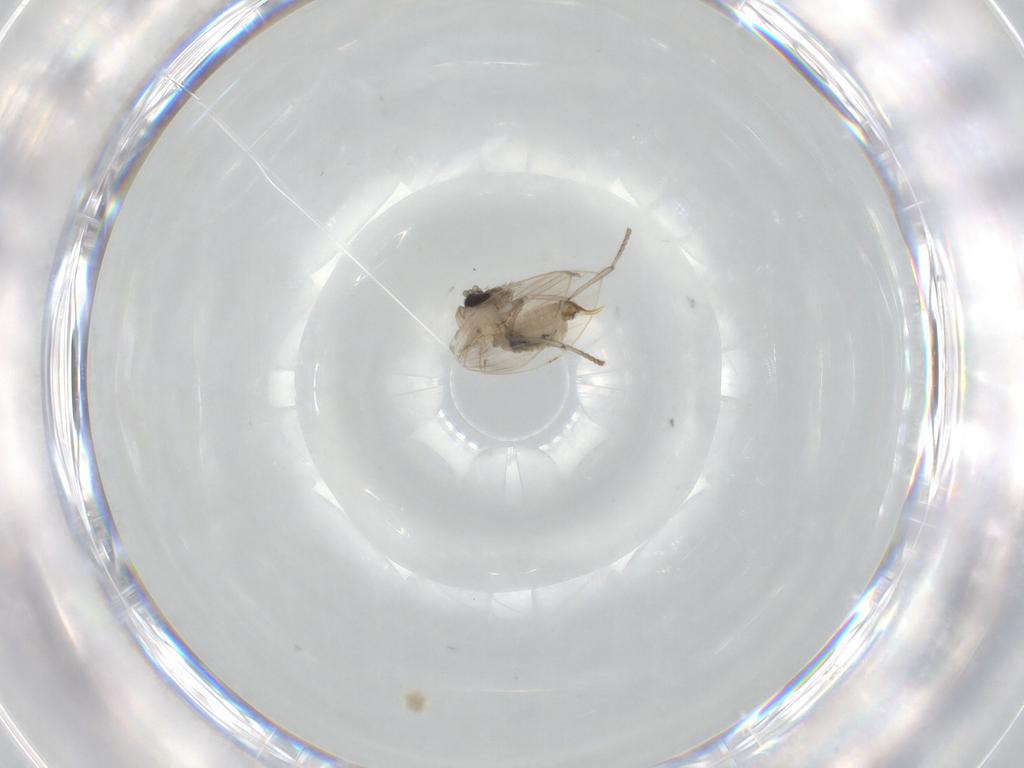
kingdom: Animalia
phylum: Arthropoda
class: Insecta
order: Diptera
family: Psychodidae
